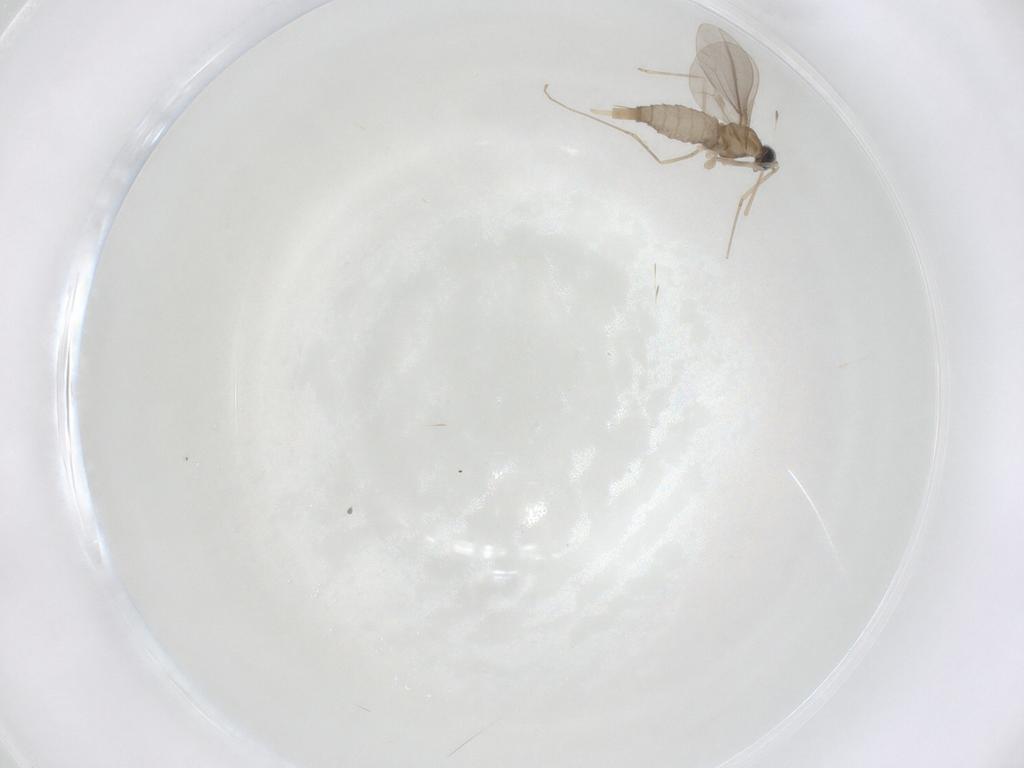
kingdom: Animalia
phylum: Arthropoda
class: Insecta
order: Diptera
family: Cecidomyiidae
